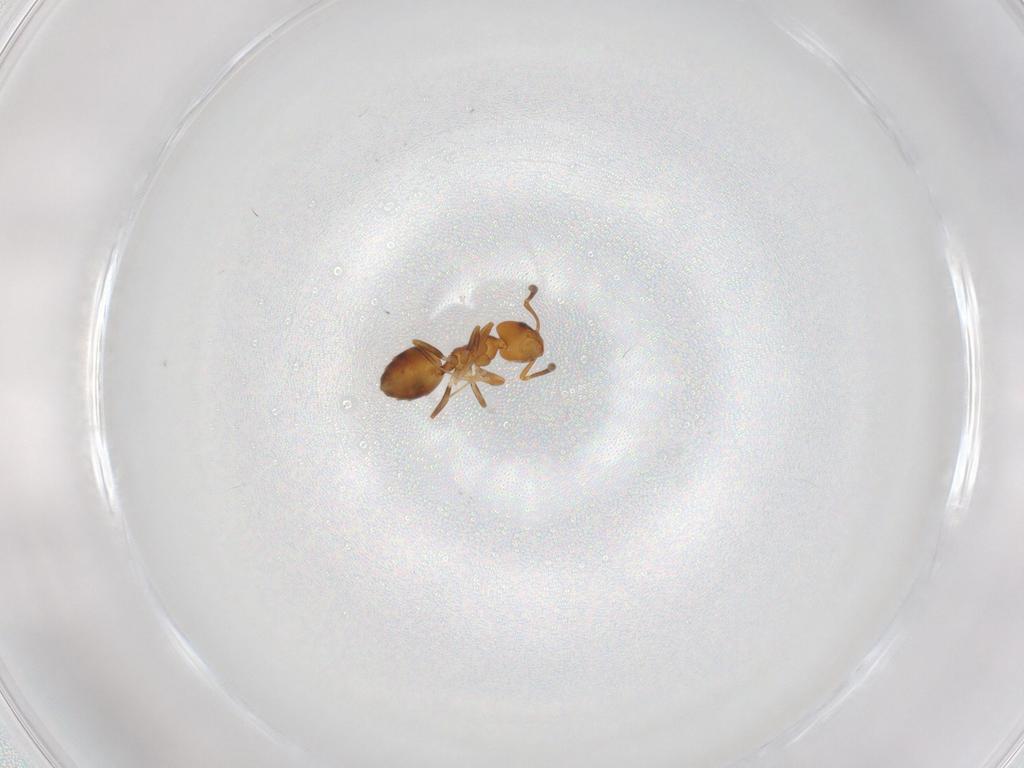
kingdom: Animalia
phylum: Arthropoda
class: Insecta
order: Hymenoptera
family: Formicidae
